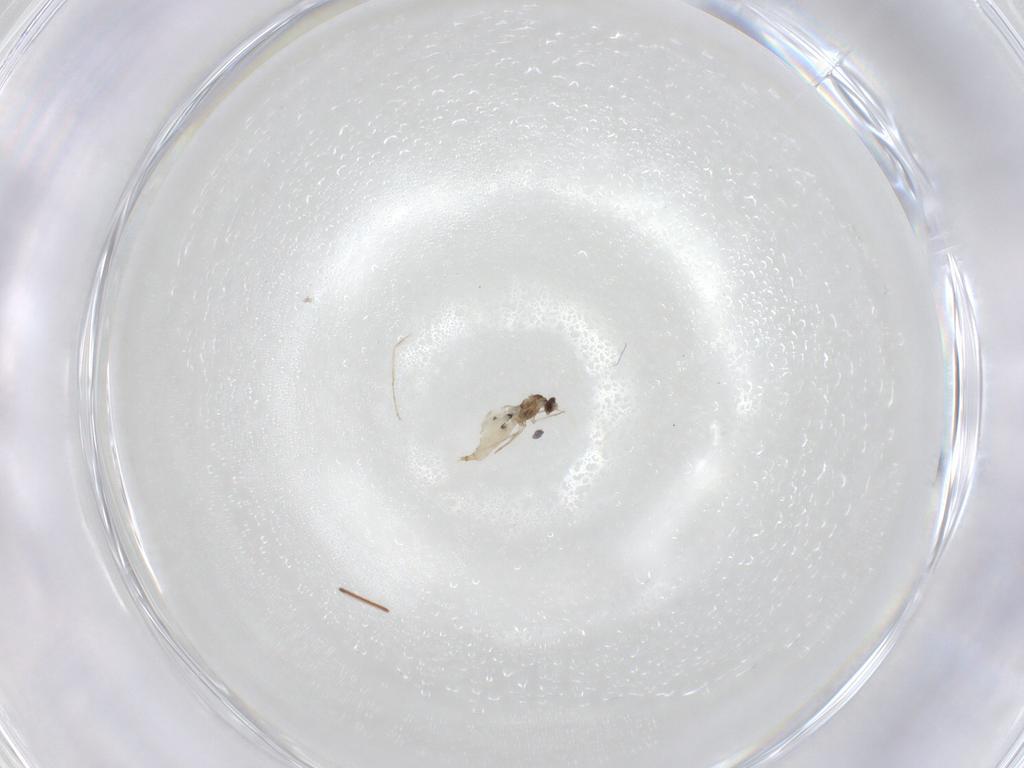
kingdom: Animalia
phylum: Arthropoda
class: Insecta
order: Diptera
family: Cecidomyiidae
